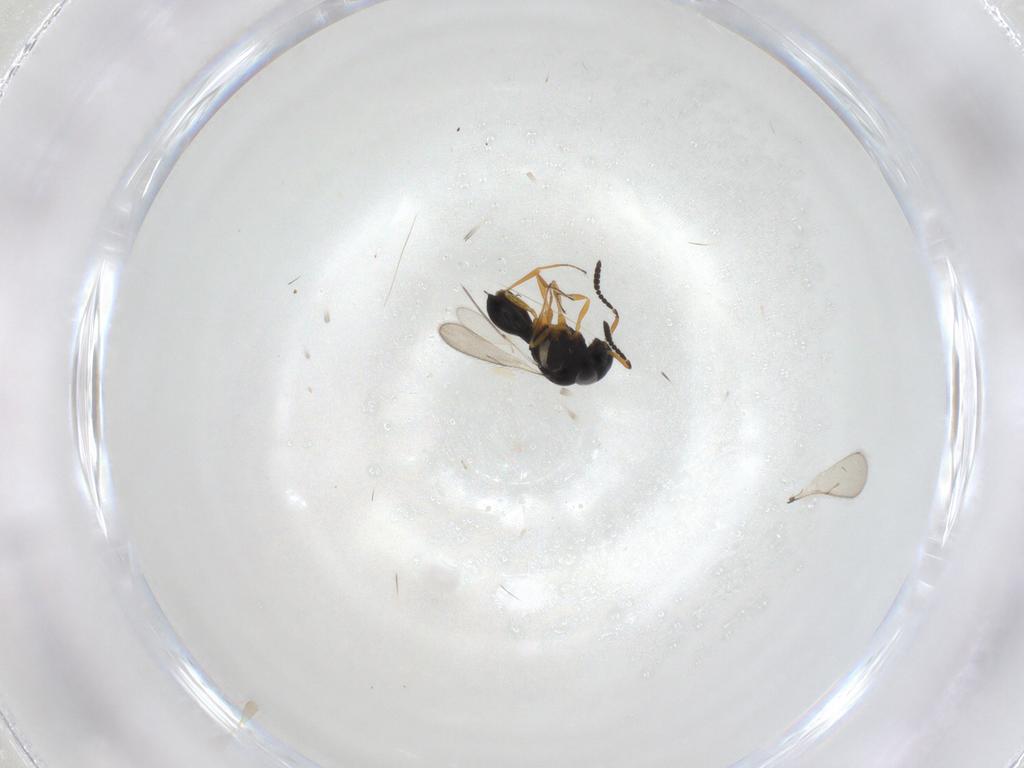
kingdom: Animalia
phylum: Arthropoda
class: Insecta
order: Hymenoptera
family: Scelionidae
